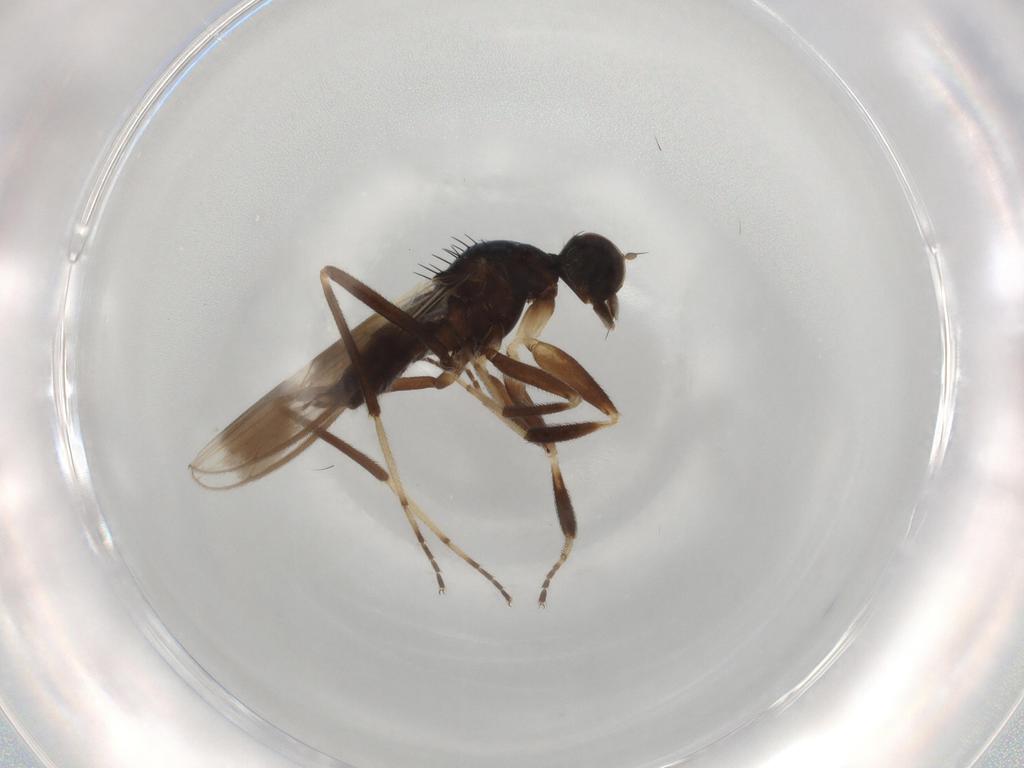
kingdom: Animalia
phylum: Arthropoda
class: Insecta
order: Diptera
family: Hybotidae
